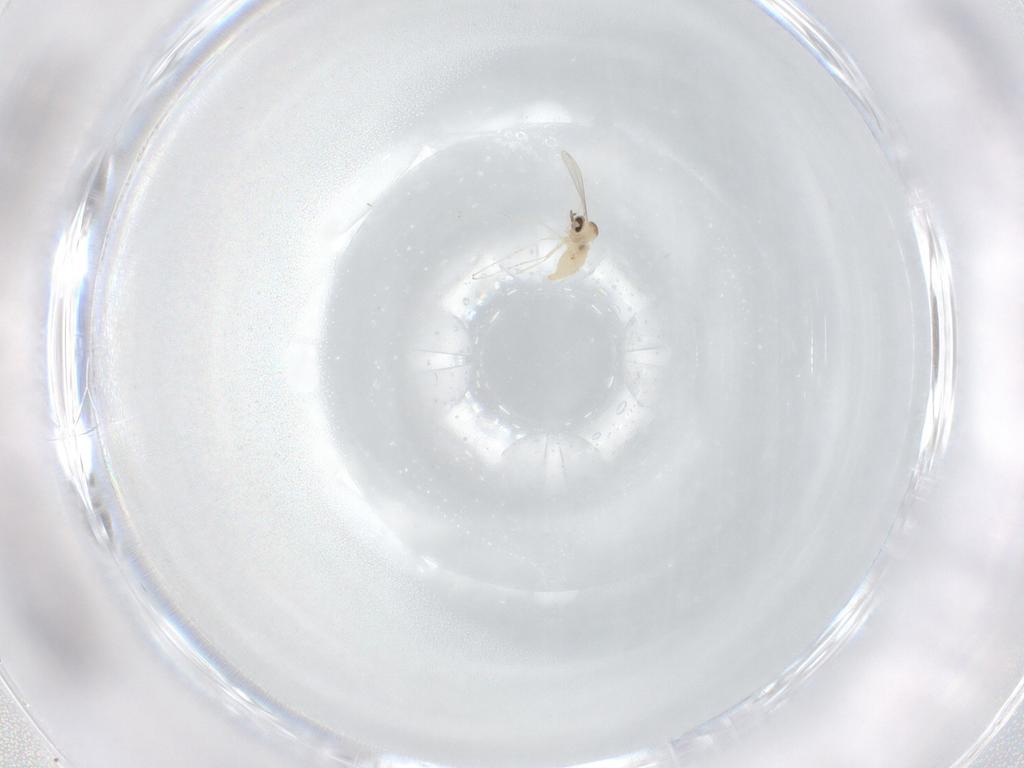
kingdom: Animalia
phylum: Arthropoda
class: Insecta
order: Diptera
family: Cecidomyiidae
